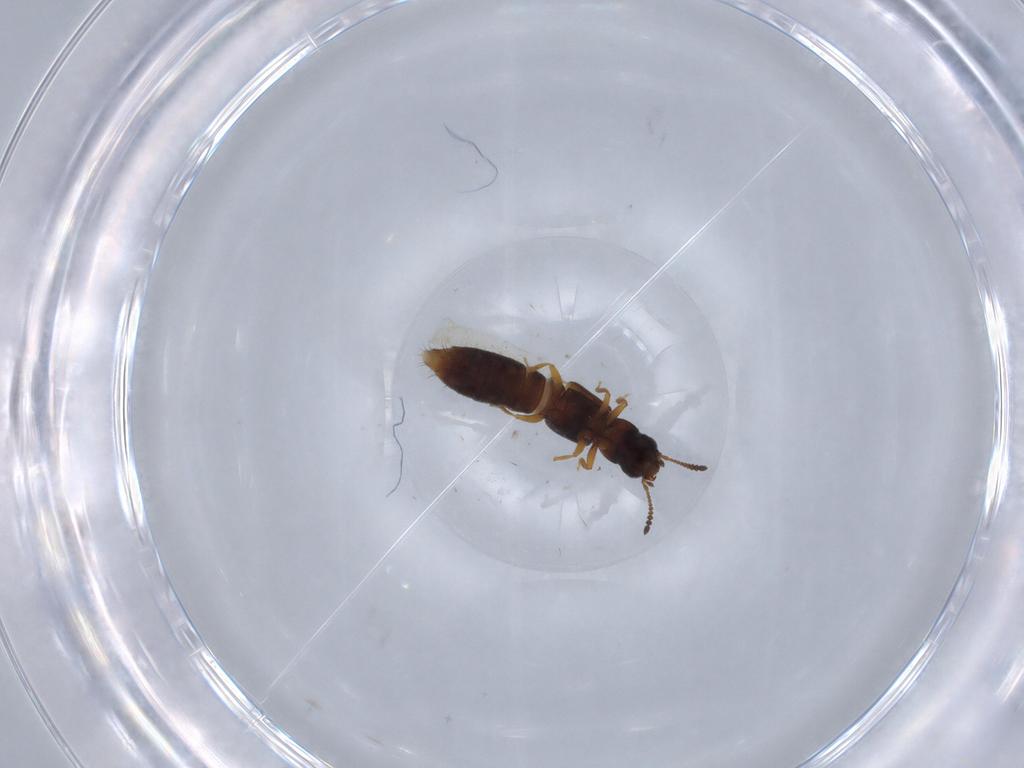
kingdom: Animalia
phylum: Arthropoda
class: Insecta
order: Coleoptera
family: Staphylinidae
